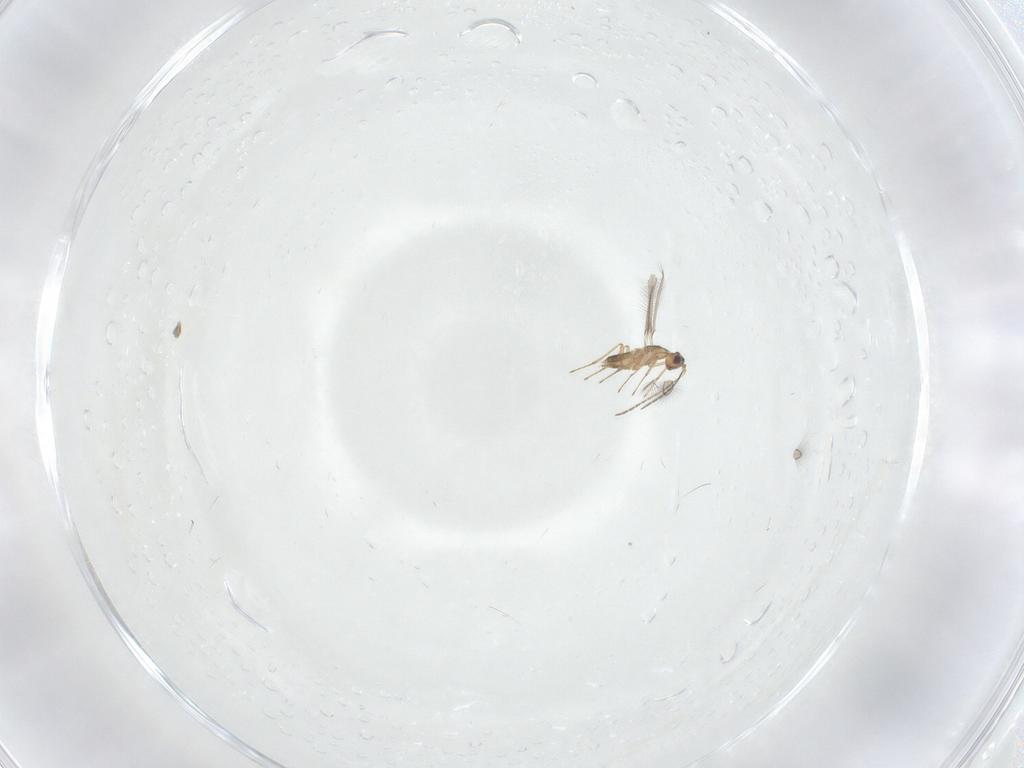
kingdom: Animalia
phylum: Arthropoda
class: Insecta
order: Hymenoptera
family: Mymaridae
